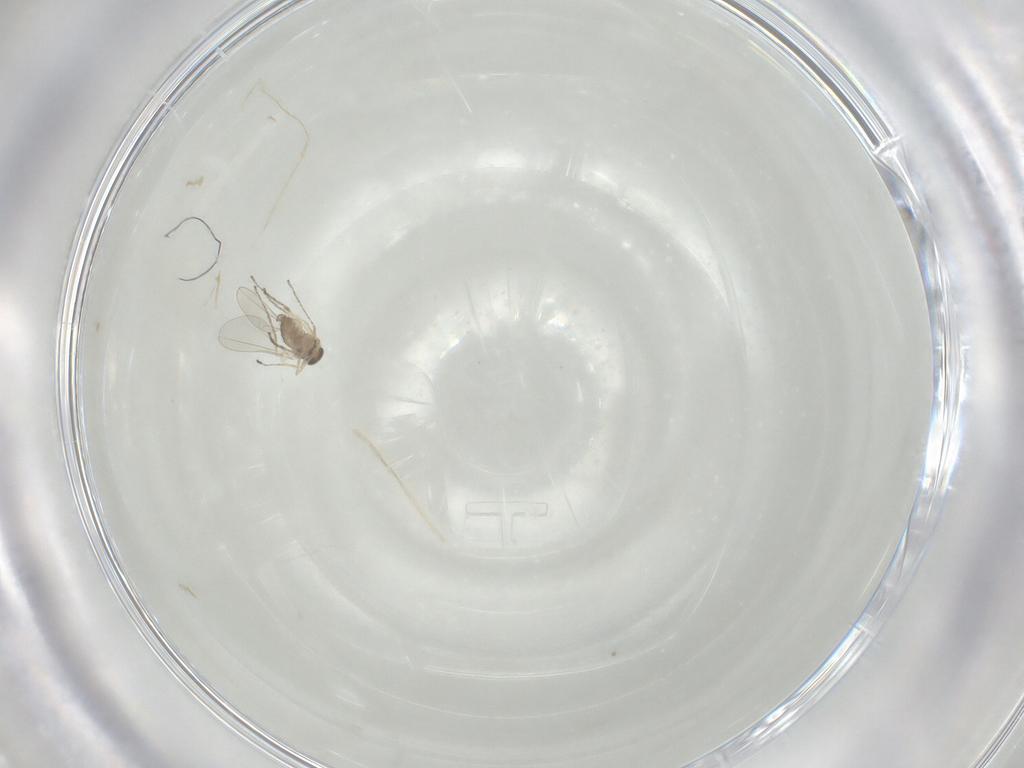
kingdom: Animalia
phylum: Arthropoda
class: Insecta
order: Diptera
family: Cecidomyiidae
